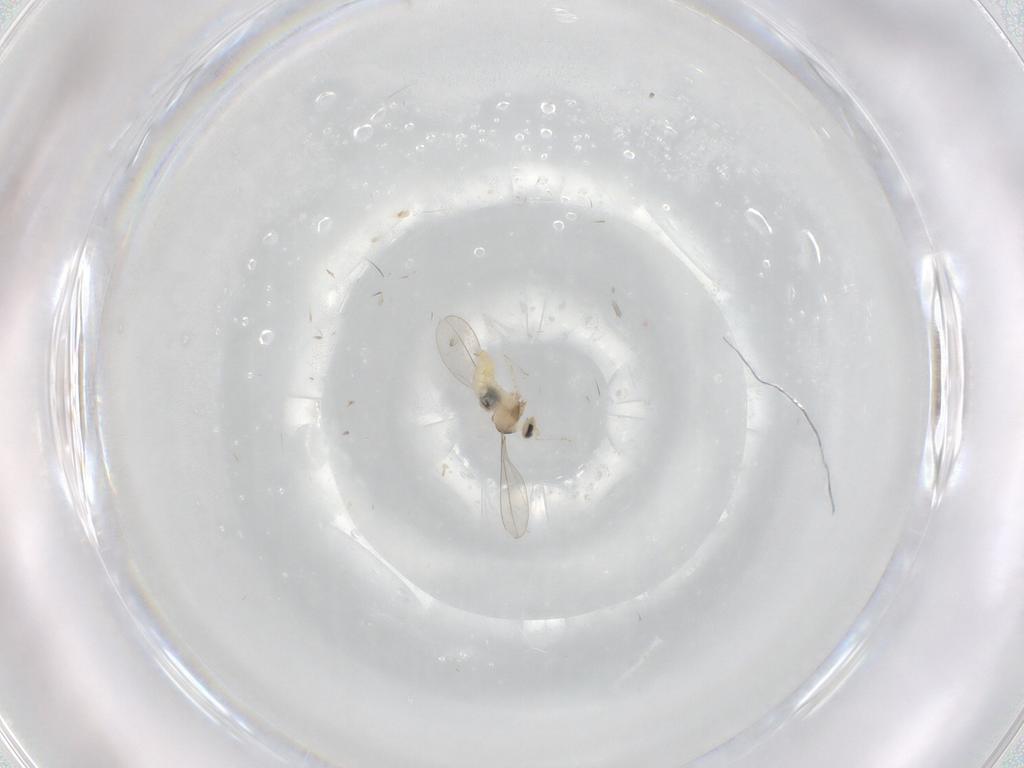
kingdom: Animalia
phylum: Arthropoda
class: Insecta
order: Diptera
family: Cecidomyiidae
